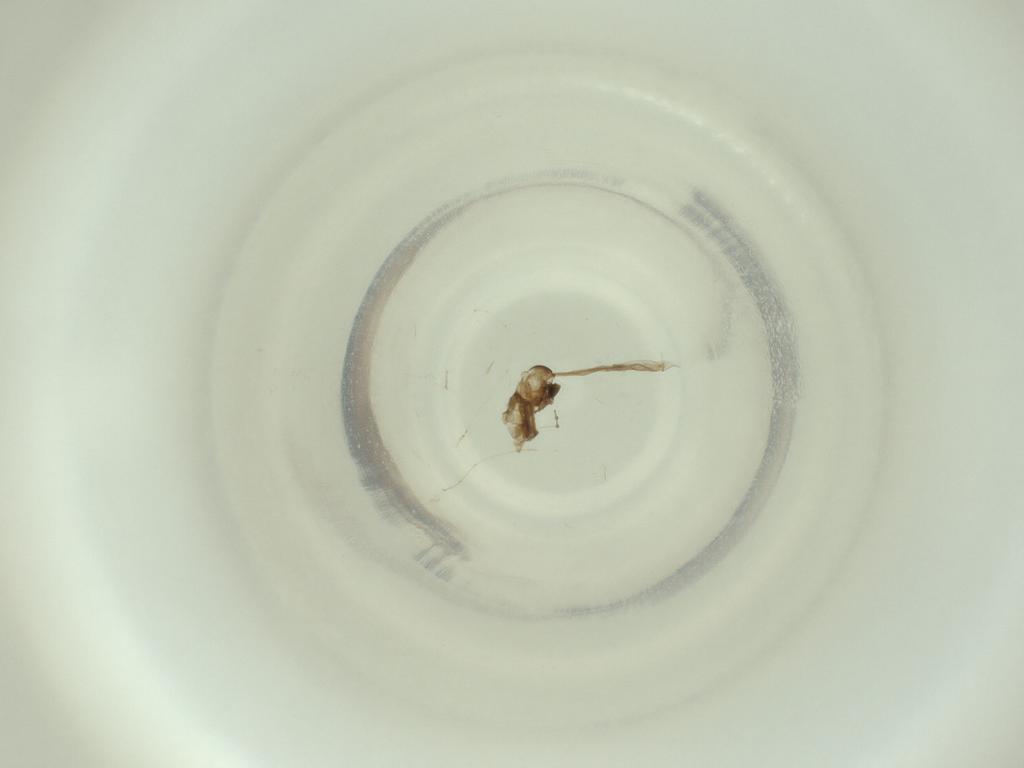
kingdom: Animalia
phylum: Arthropoda
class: Insecta
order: Diptera
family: Cecidomyiidae
